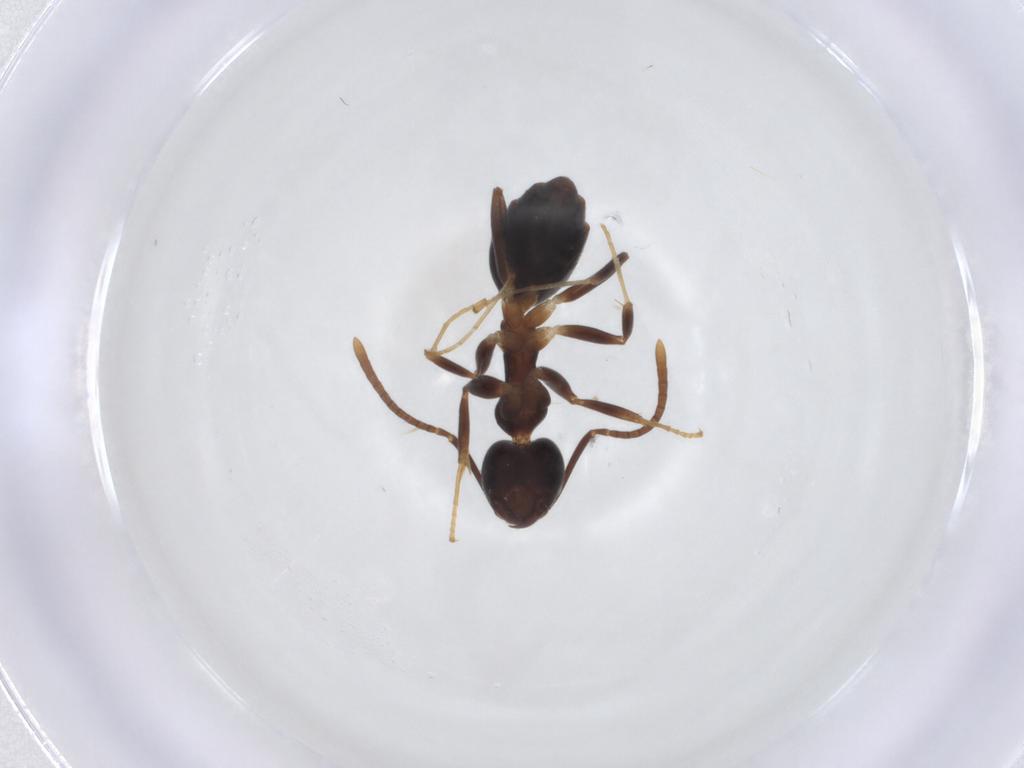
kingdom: Animalia
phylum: Arthropoda
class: Insecta
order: Hymenoptera
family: Formicidae
